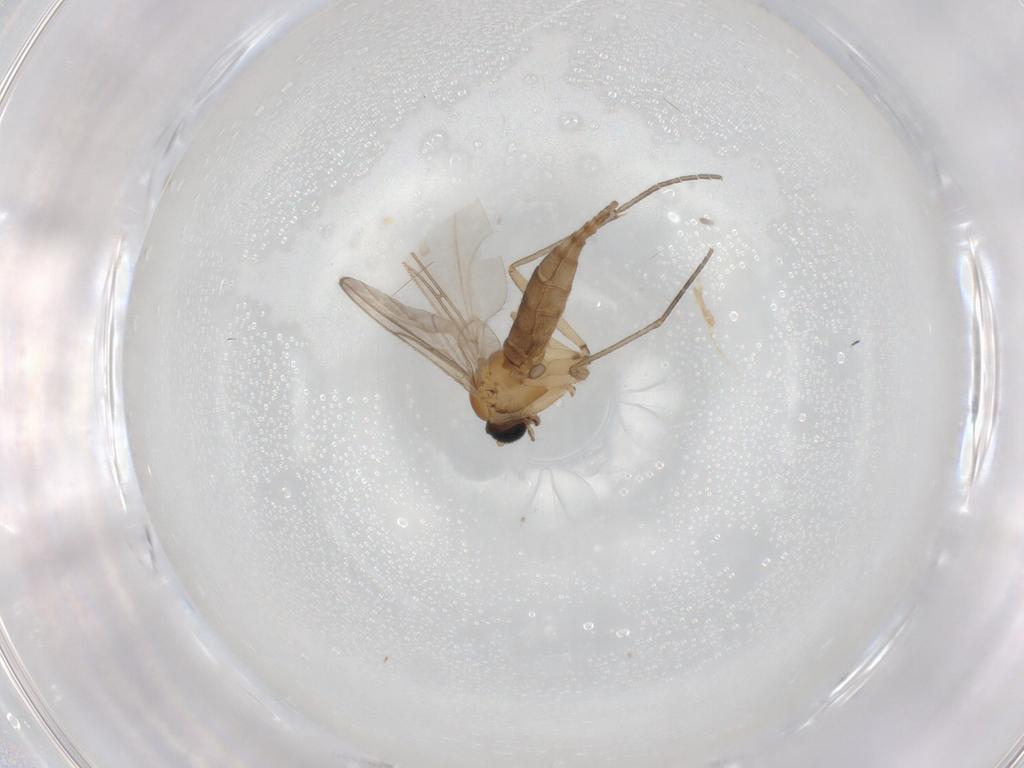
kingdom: Animalia
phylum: Arthropoda
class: Insecta
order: Diptera
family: Sciaridae
